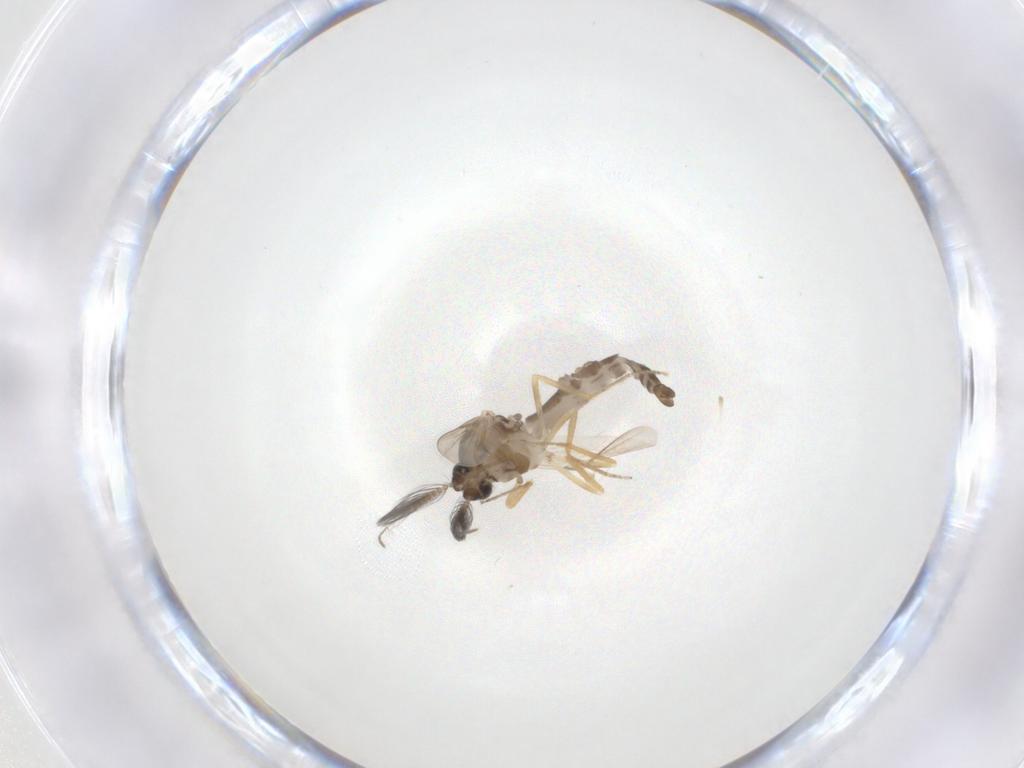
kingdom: Animalia
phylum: Arthropoda
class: Insecta
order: Diptera
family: Ceratopogonidae
